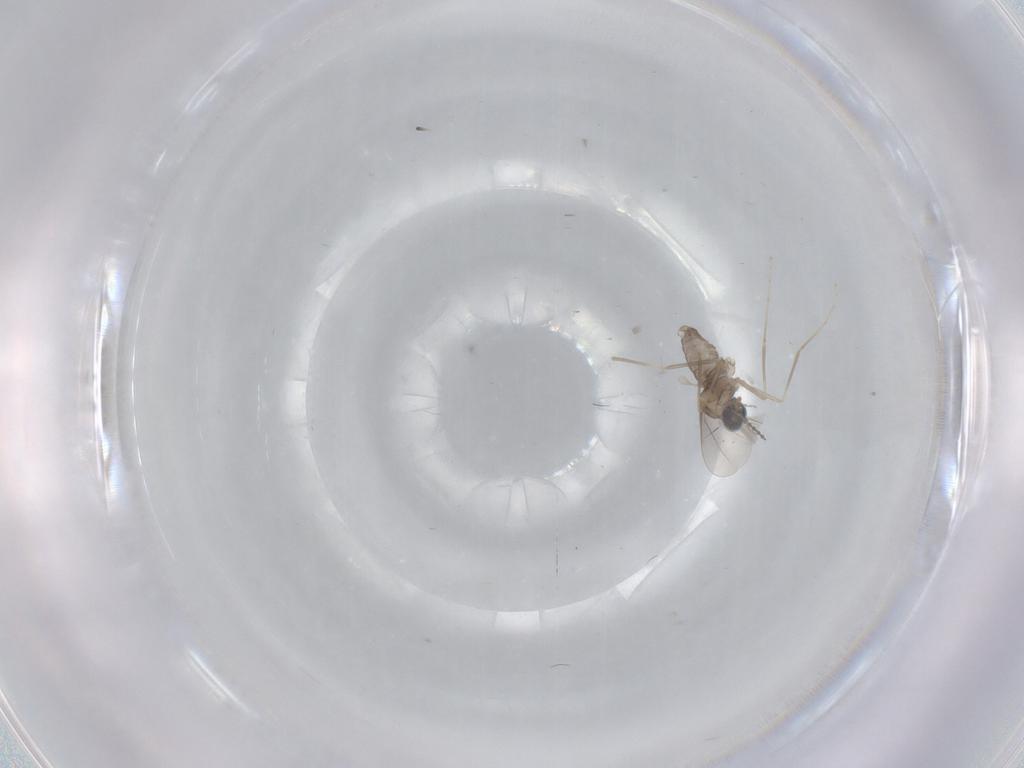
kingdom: Animalia
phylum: Arthropoda
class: Insecta
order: Diptera
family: Cecidomyiidae
